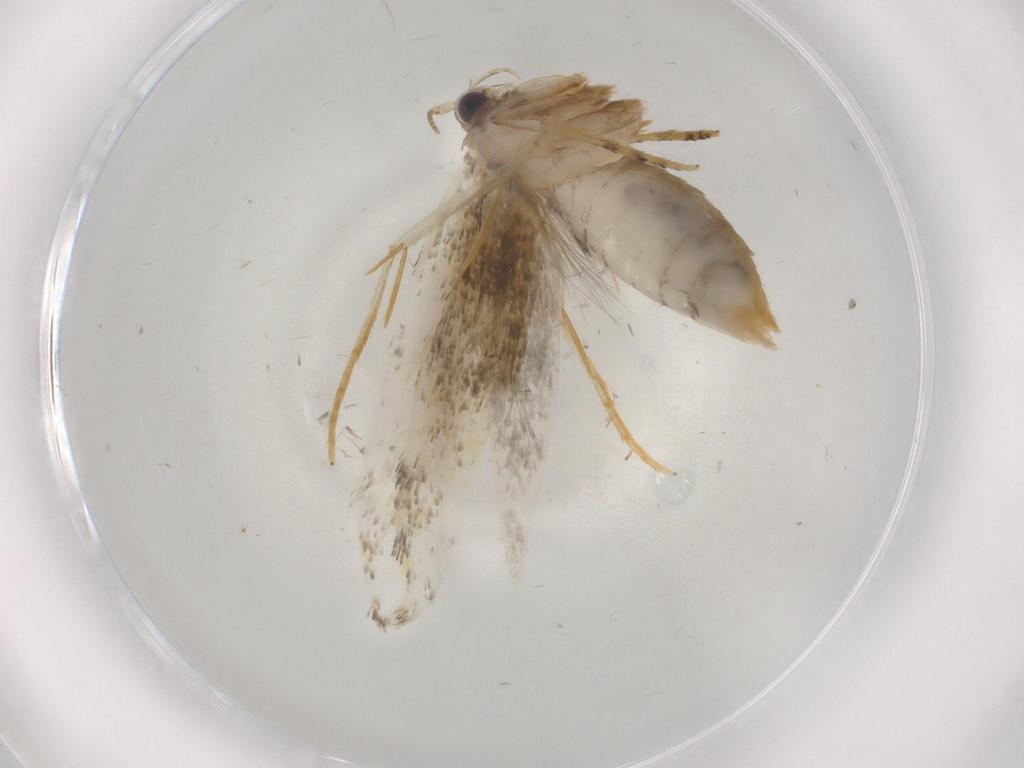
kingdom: Animalia
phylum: Arthropoda
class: Insecta
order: Lepidoptera
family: Tineidae
